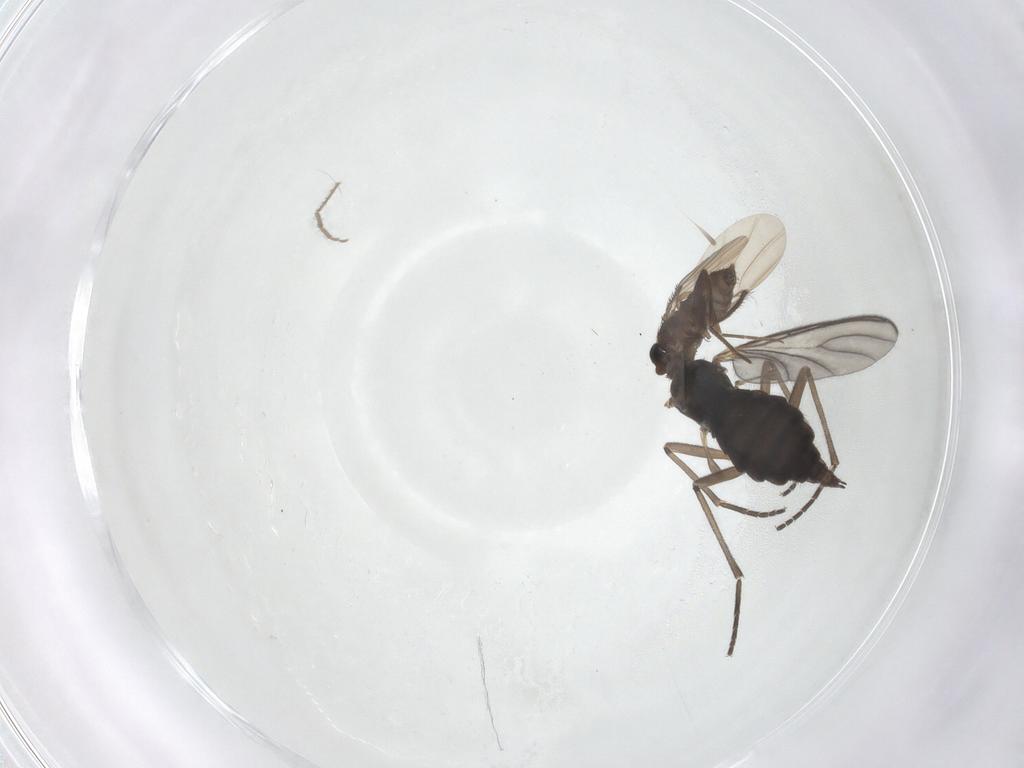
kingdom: Animalia
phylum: Arthropoda
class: Insecta
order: Diptera
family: Sciaridae
